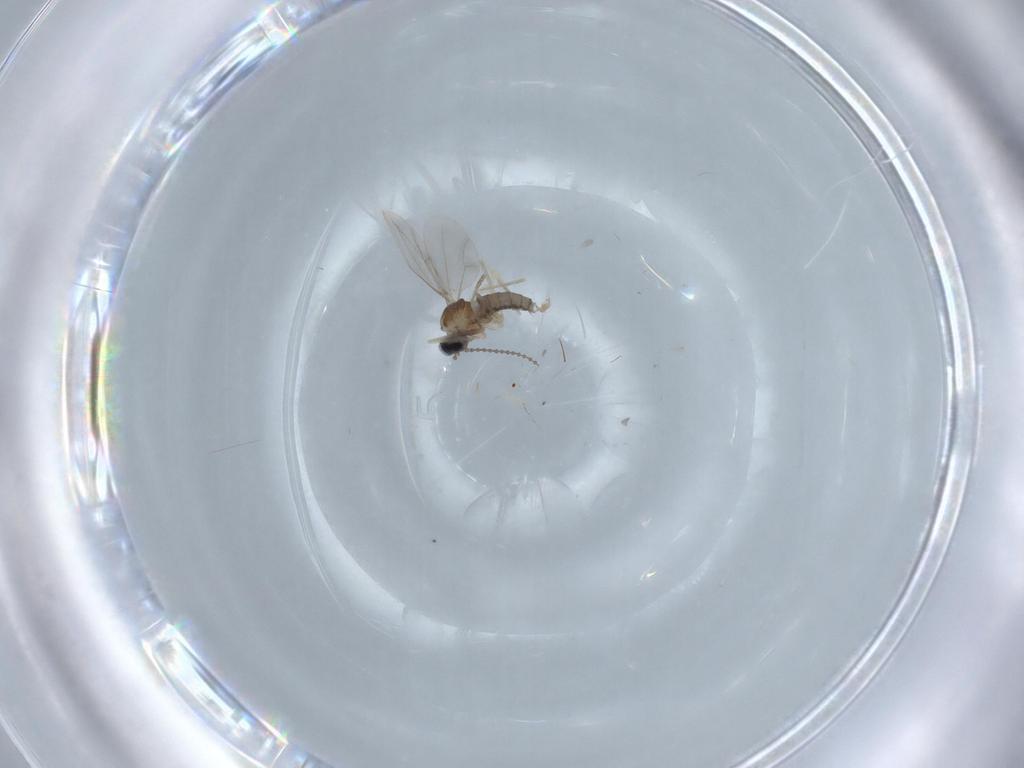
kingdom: Animalia
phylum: Arthropoda
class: Insecta
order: Diptera
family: Cecidomyiidae
